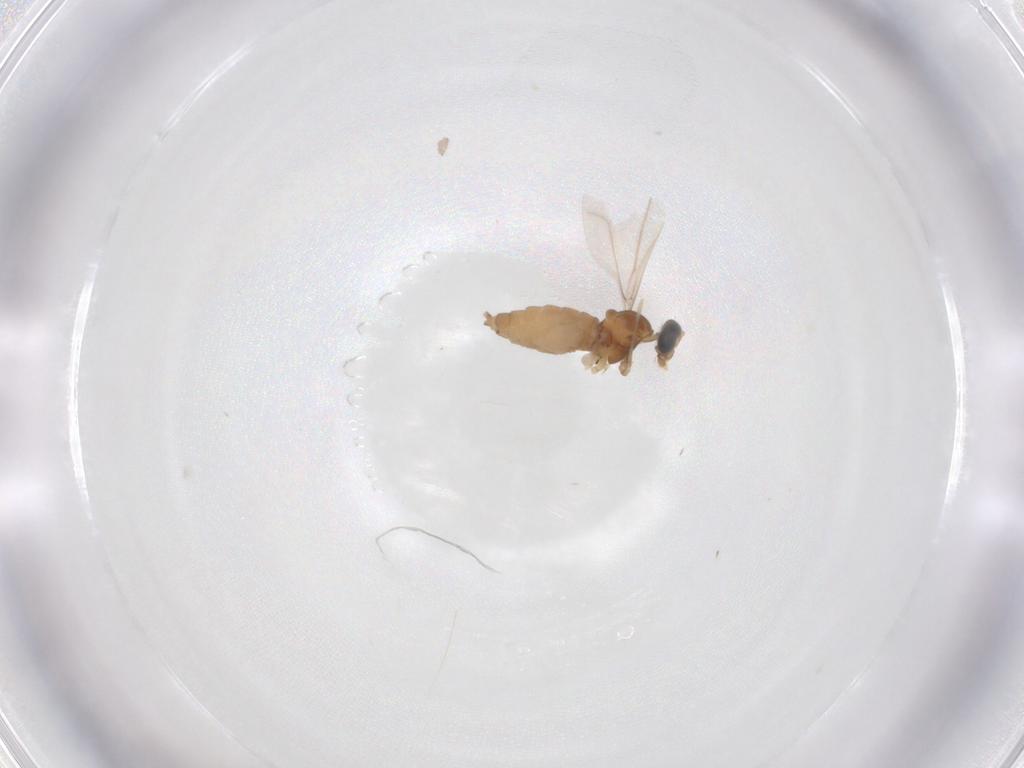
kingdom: Animalia
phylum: Arthropoda
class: Insecta
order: Diptera
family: Cecidomyiidae
